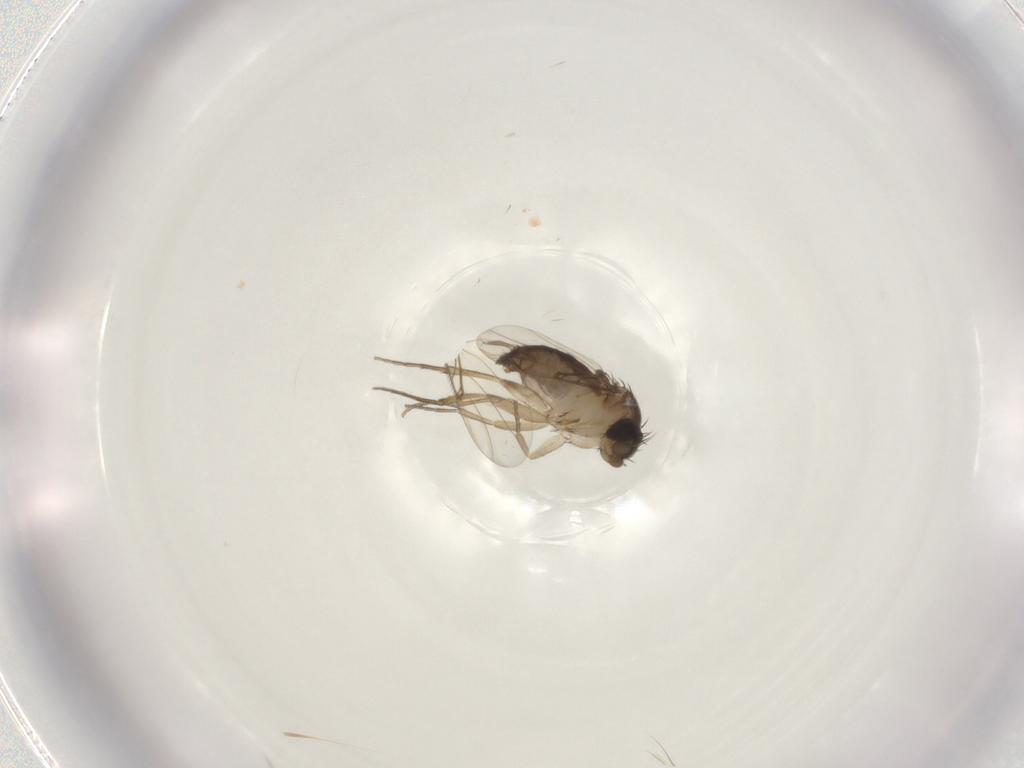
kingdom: Animalia
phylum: Arthropoda
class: Insecta
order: Diptera
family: Phoridae
